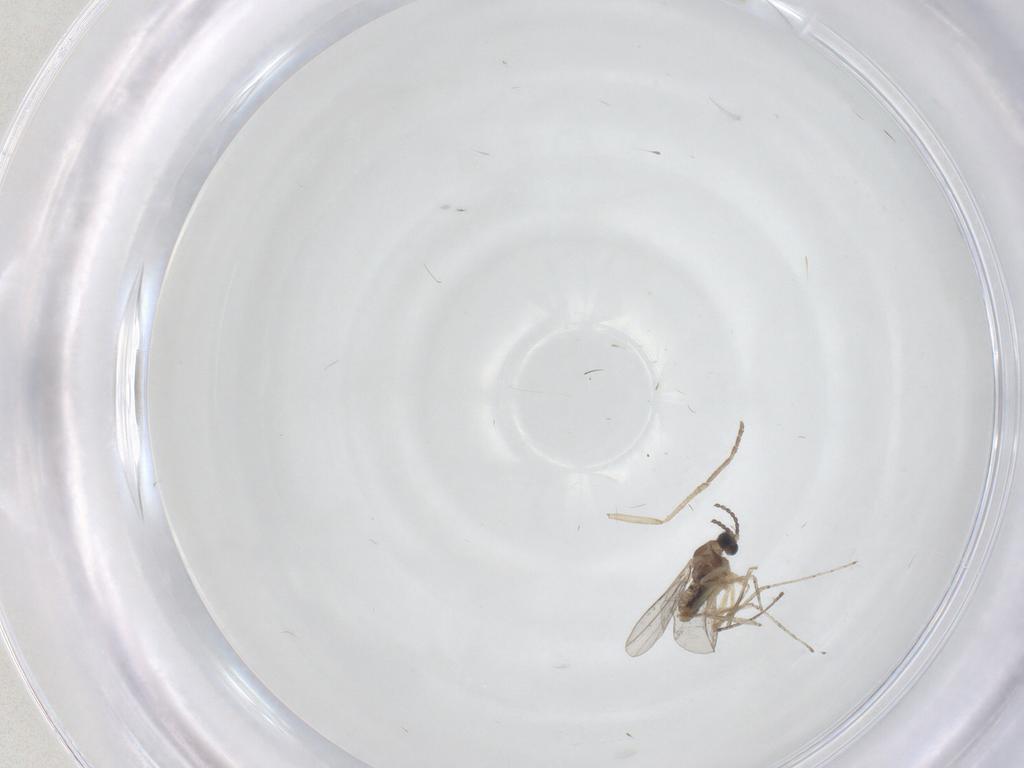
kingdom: Animalia
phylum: Arthropoda
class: Insecta
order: Diptera
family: Cecidomyiidae
